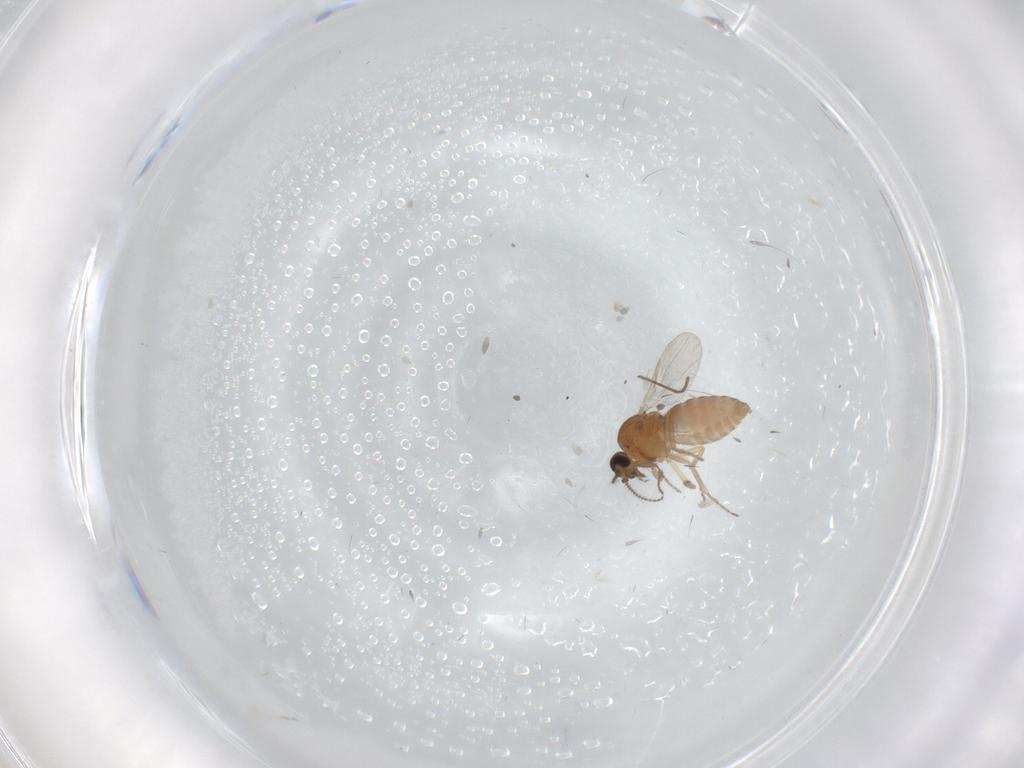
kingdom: Animalia
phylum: Arthropoda
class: Insecta
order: Diptera
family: Ceratopogonidae
